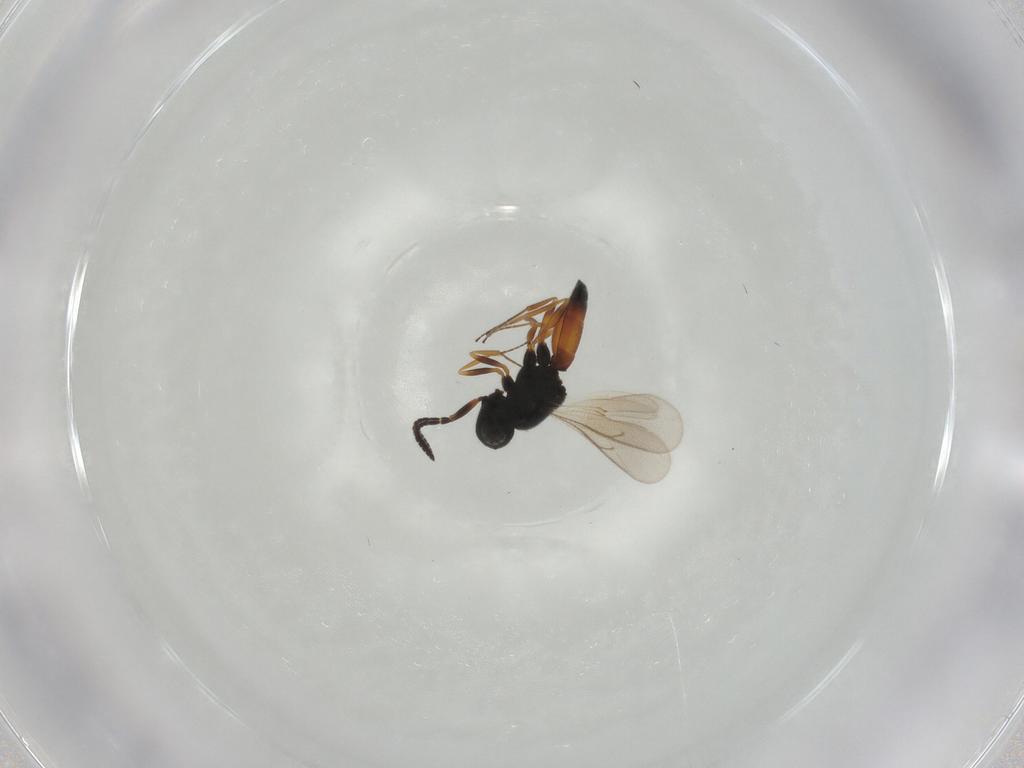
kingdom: Animalia
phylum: Arthropoda
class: Insecta
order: Hymenoptera
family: Scelionidae
